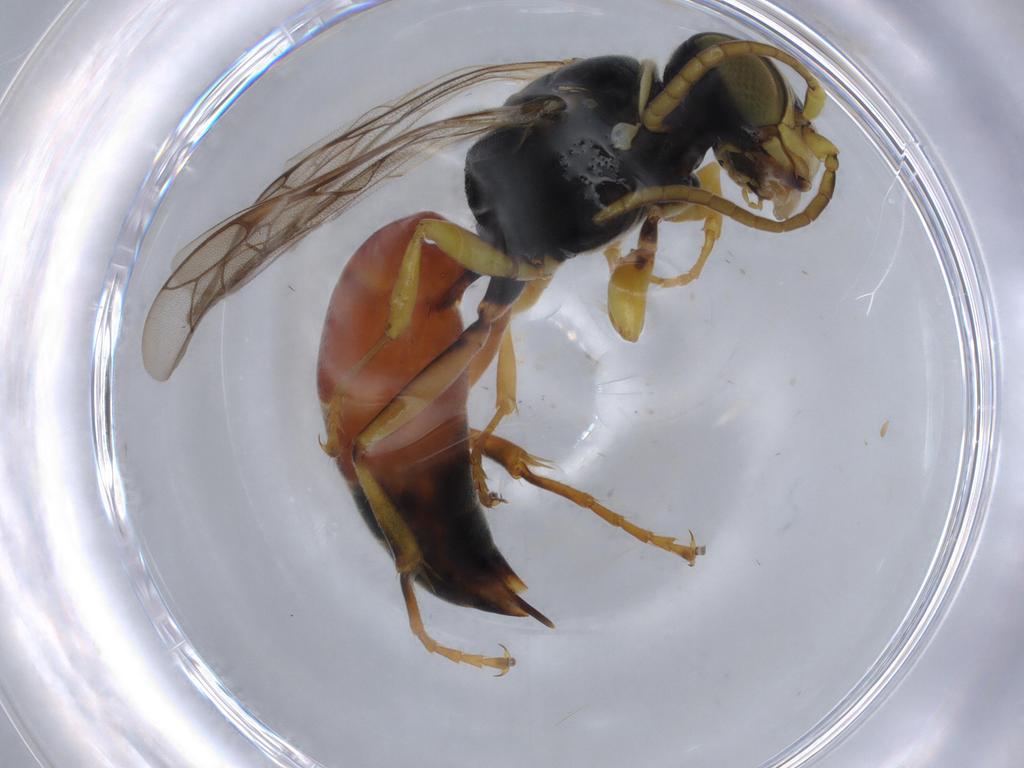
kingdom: Animalia
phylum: Arthropoda
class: Insecta
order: Hymenoptera
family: Bembicidae
